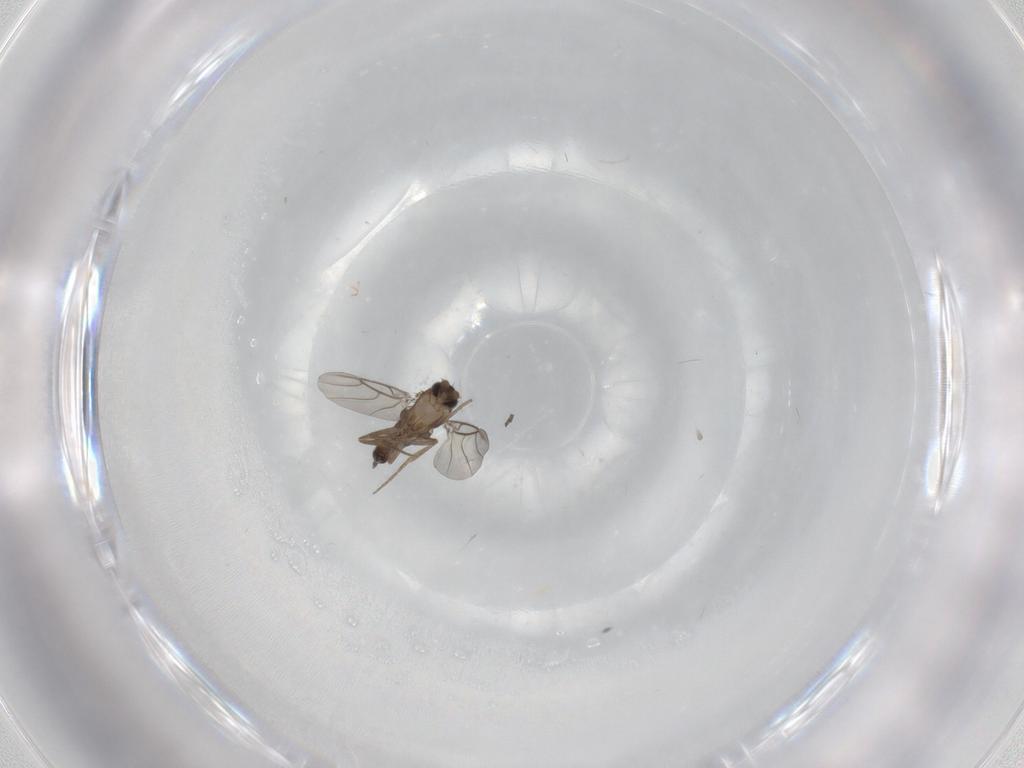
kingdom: Animalia
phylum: Arthropoda
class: Insecta
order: Diptera
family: Phoridae
